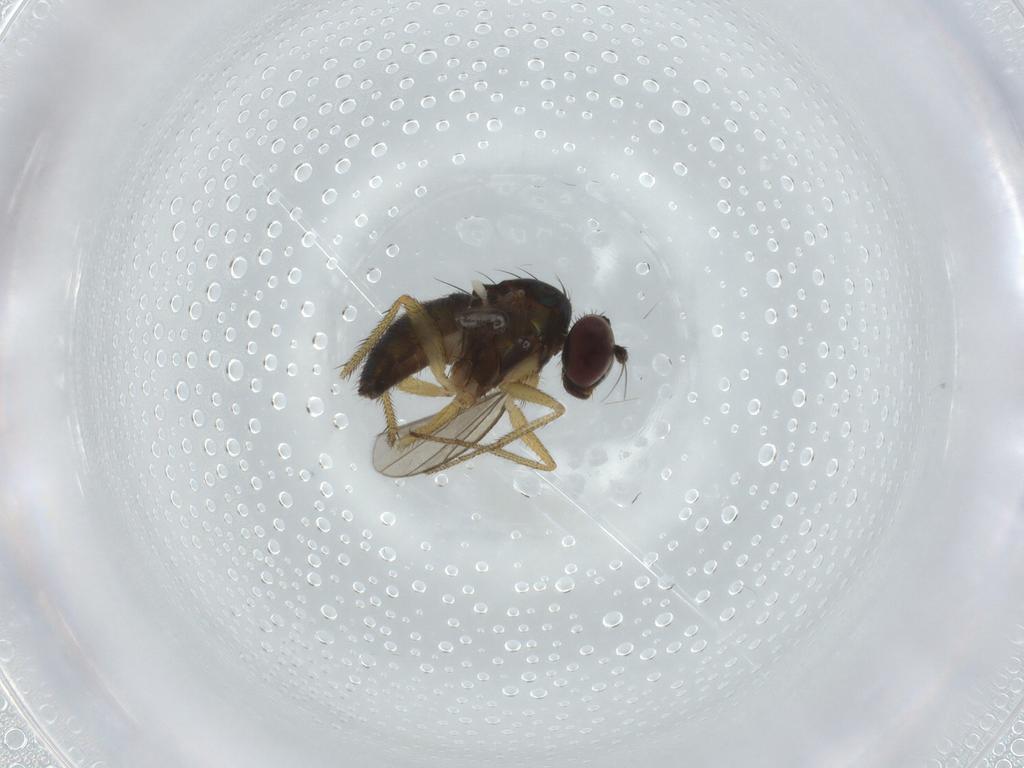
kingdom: Animalia
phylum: Arthropoda
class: Insecta
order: Diptera
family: Dolichopodidae
